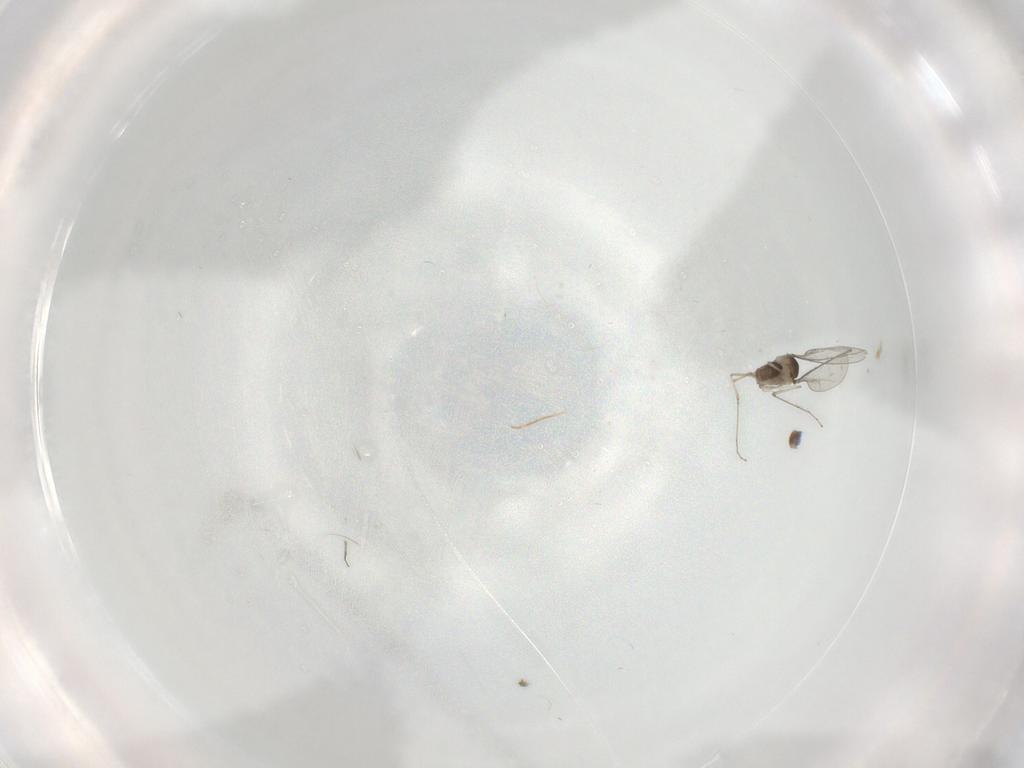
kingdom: Animalia
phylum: Arthropoda
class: Insecta
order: Diptera
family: Cecidomyiidae
